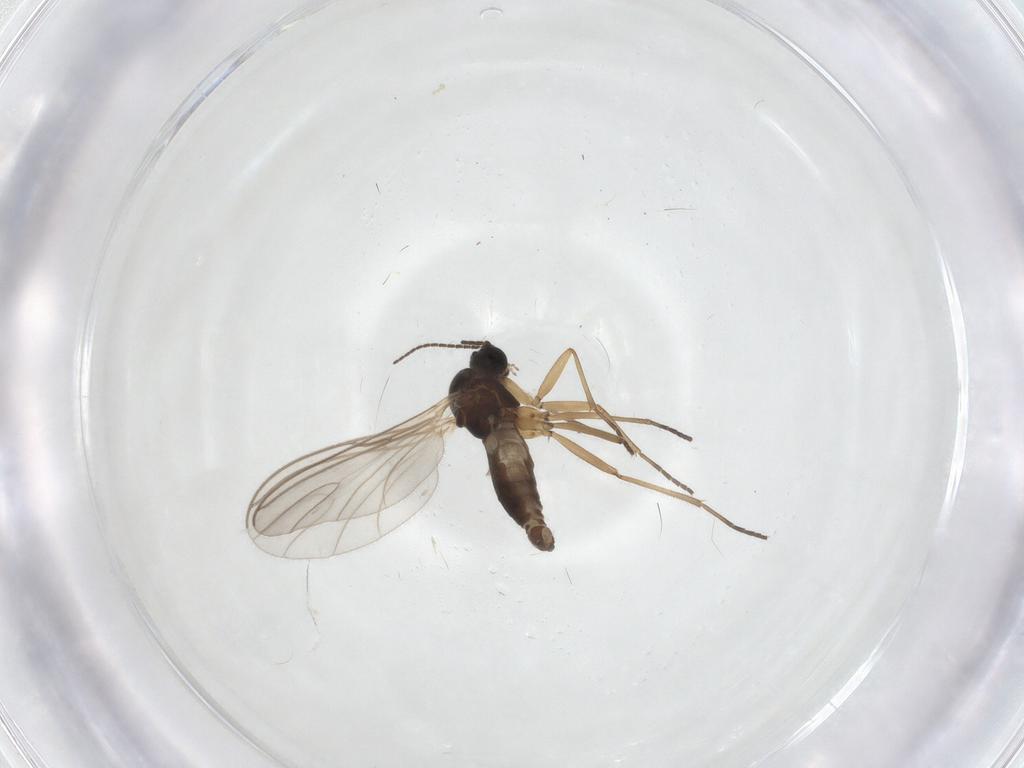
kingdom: Animalia
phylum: Arthropoda
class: Insecta
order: Diptera
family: Sciaridae
